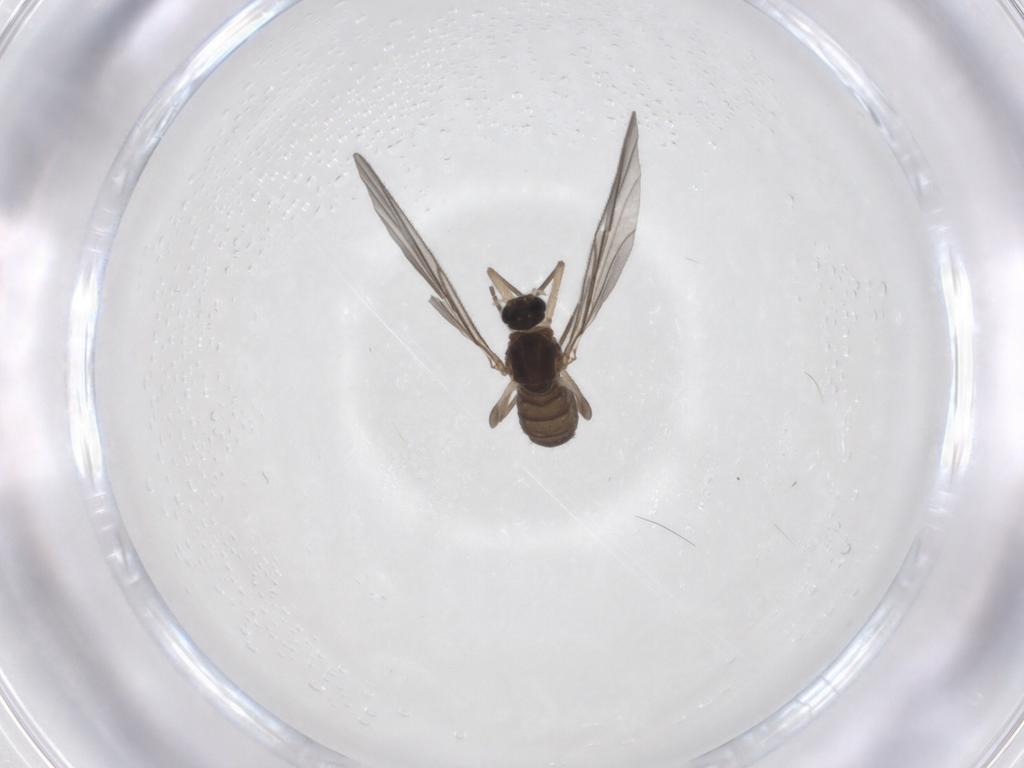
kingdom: Animalia
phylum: Arthropoda
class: Insecta
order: Diptera
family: Sciaridae
